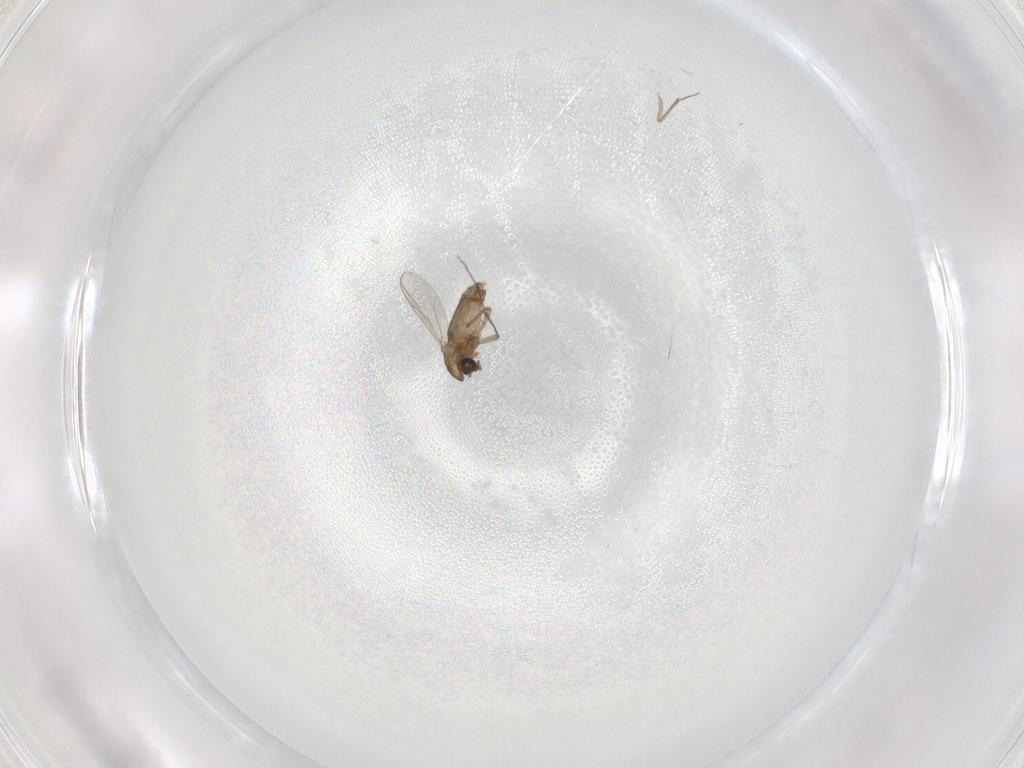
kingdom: Animalia
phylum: Arthropoda
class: Insecta
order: Diptera
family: Chironomidae
